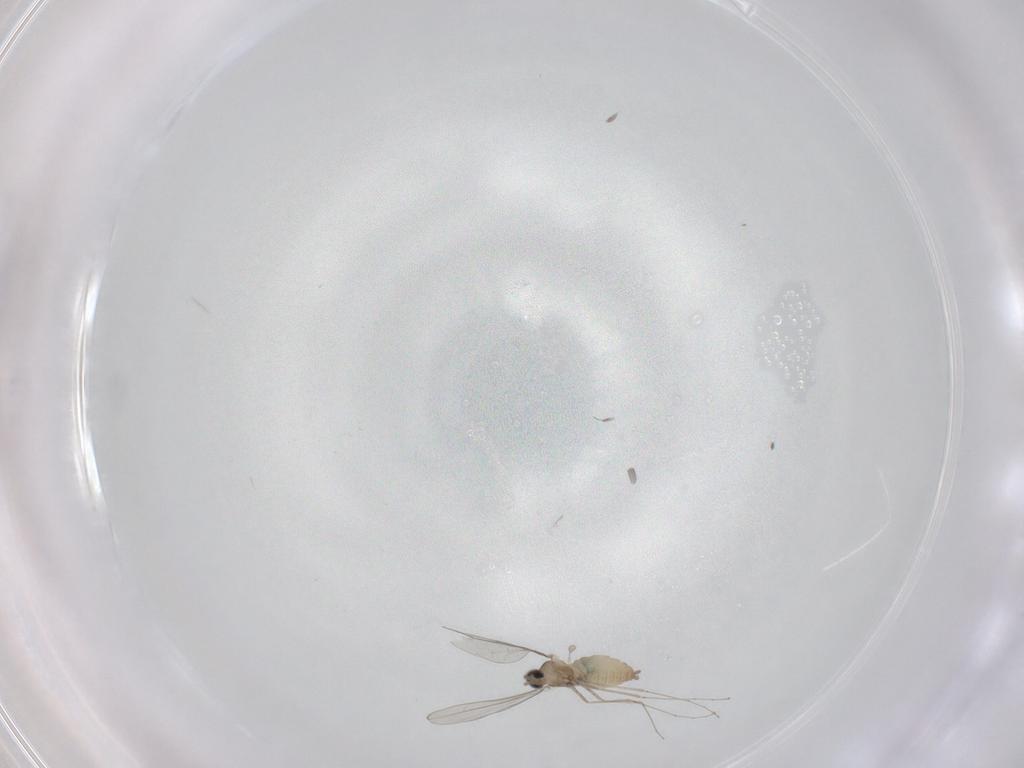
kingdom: Animalia
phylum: Arthropoda
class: Insecta
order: Diptera
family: Cecidomyiidae
